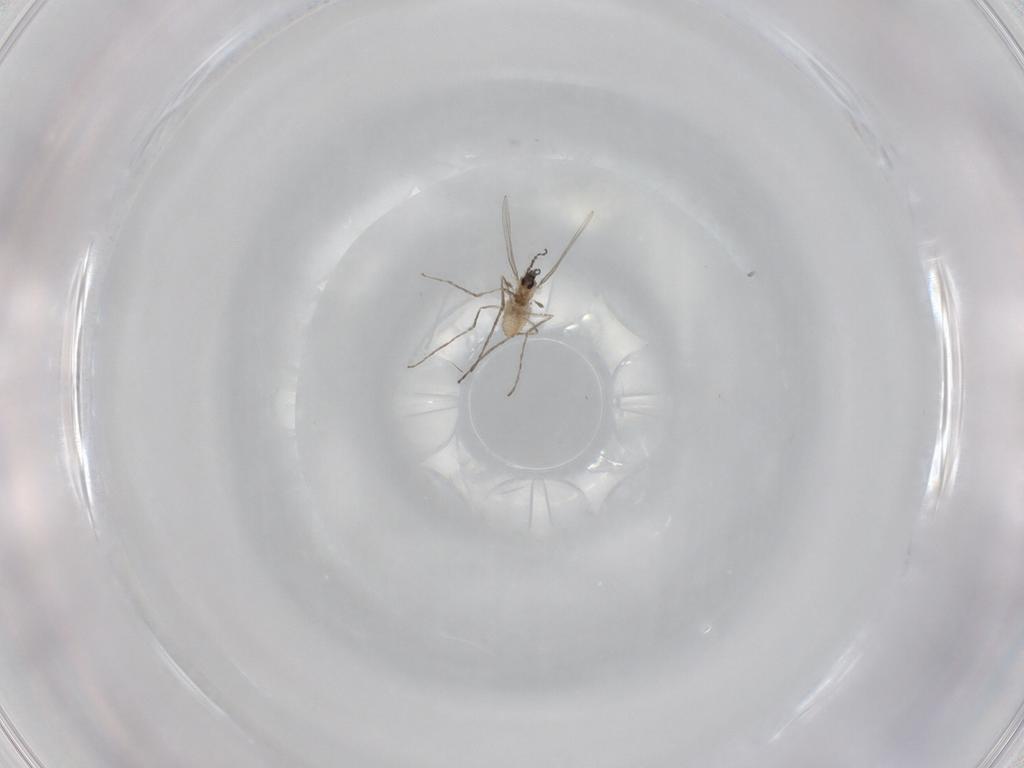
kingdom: Animalia
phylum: Arthropoda
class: Insecta
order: Diptera
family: Cecidomyiidae
